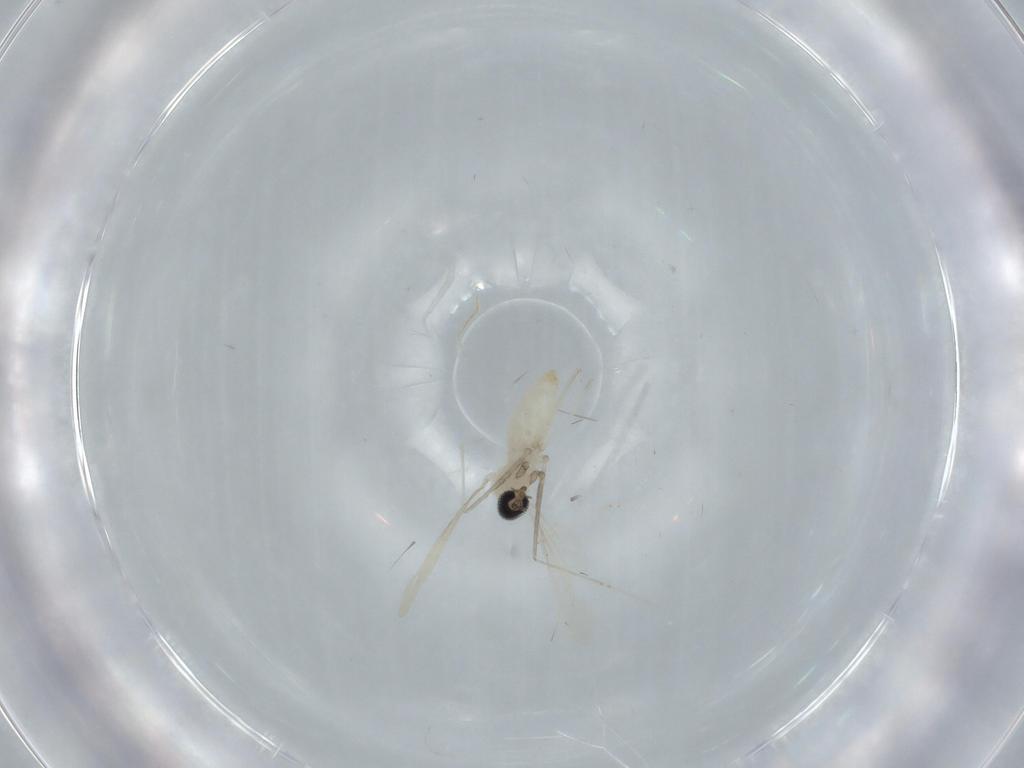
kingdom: Animalia
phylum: Arthropoda
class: Insecta
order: Diptera
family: Cecidomyiidae
